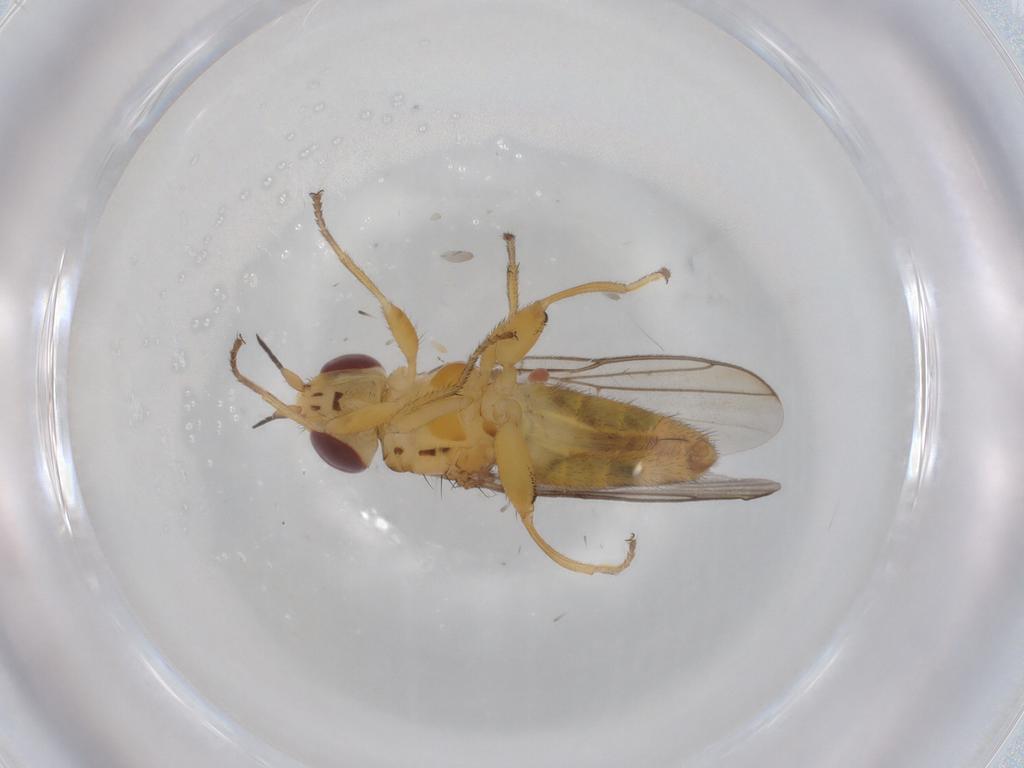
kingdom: Animalia
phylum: Arthropoda
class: Insecta
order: Diptera
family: Chloropidae
